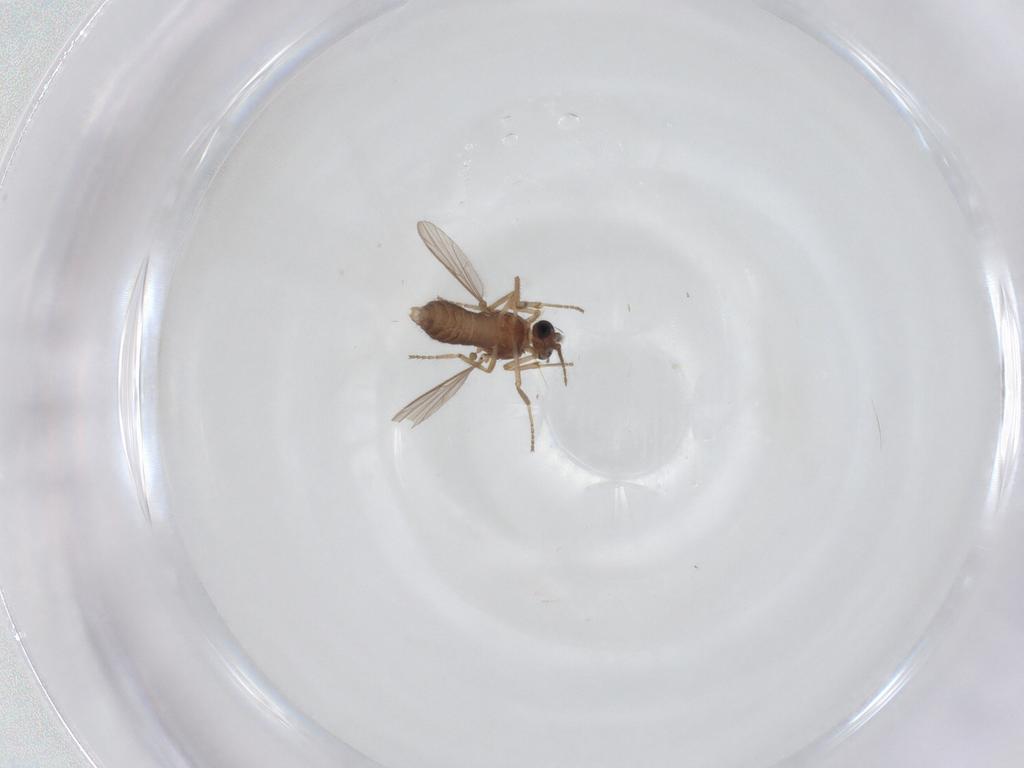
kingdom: Animalia
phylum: Arthropoda
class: Insecta
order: Diptera
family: Ceratopogonidae
